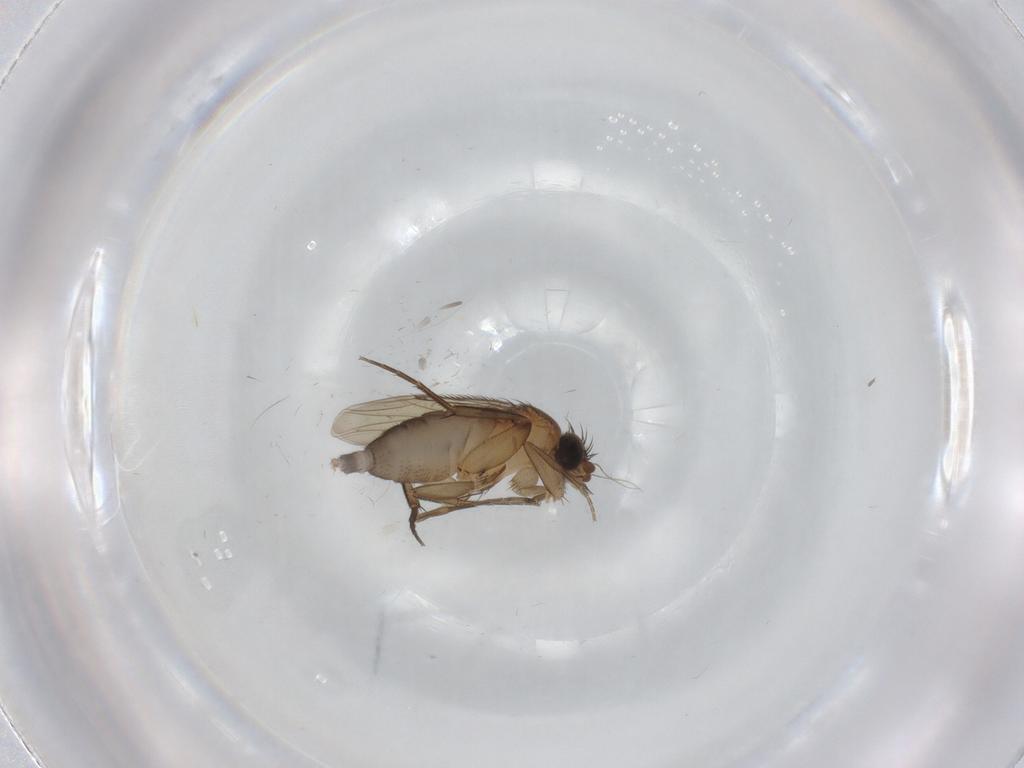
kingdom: Animalia
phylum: Arthropoda
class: Insecta
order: Diptera
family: Phoridae
